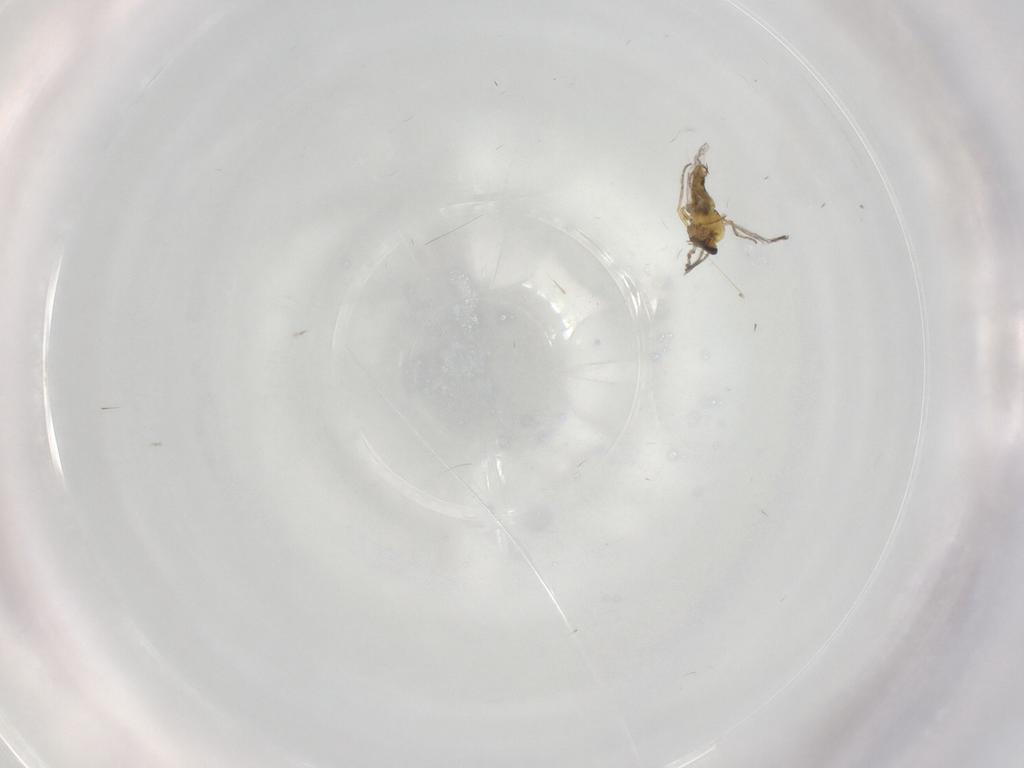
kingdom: Animalia
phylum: Arthropoda
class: Insecta
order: Diptera
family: Ceratopogonidae
